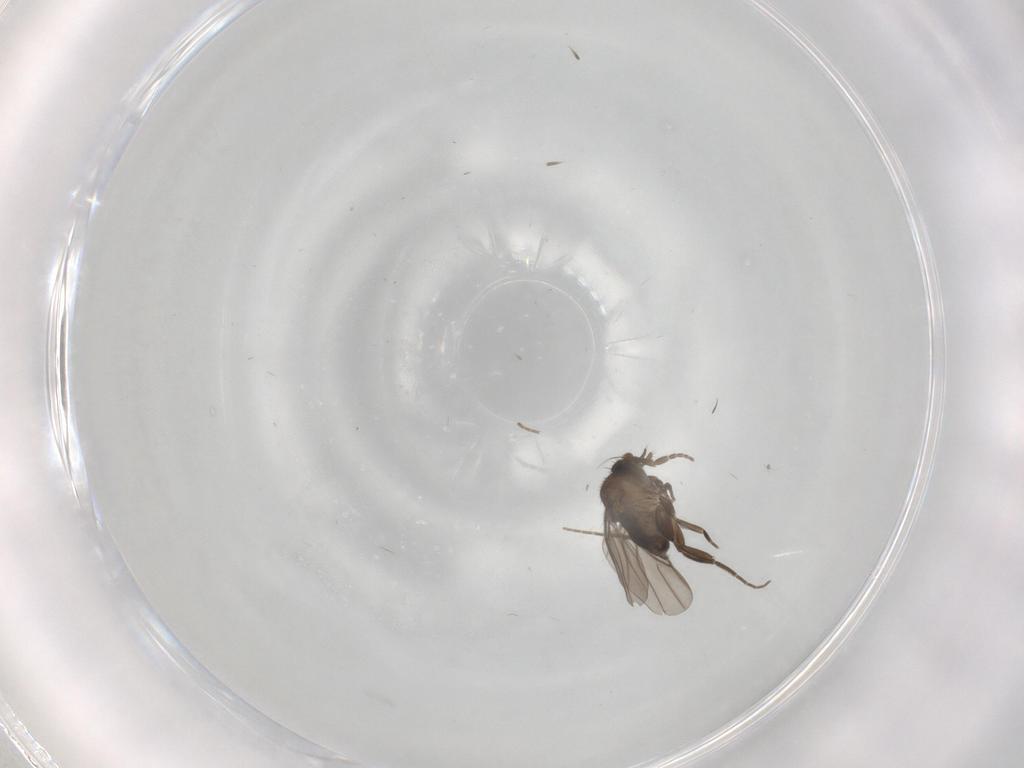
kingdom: Animalia
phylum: Arthropoda
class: Insecta
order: Diptera
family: Phoridae
